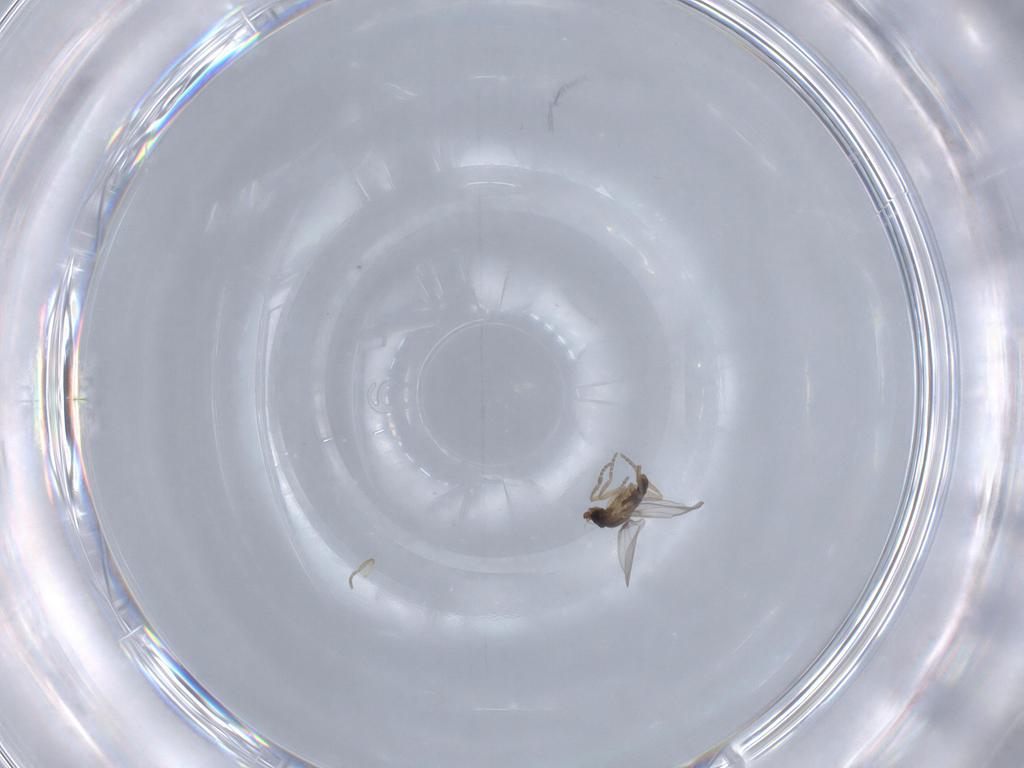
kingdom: Animalia
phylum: Arthropoda
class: Insecta
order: Diptera
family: Phoridae
